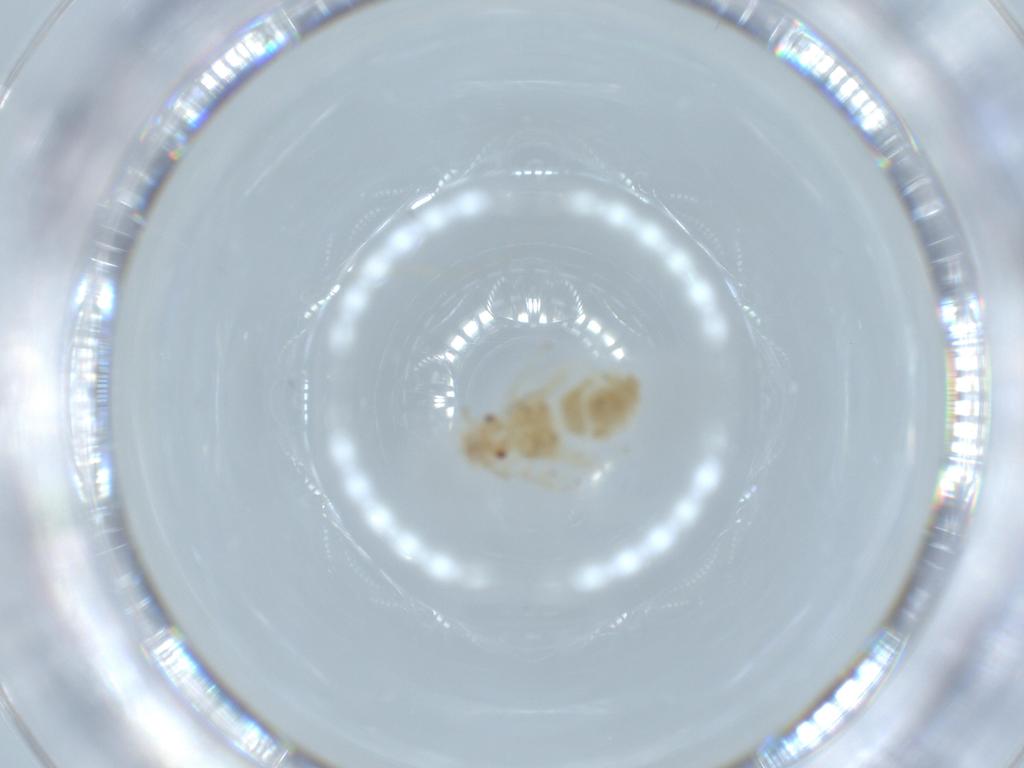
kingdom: Animalia
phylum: Arthropoda
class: Insecta
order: Psocodea
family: Caeciliusidae
